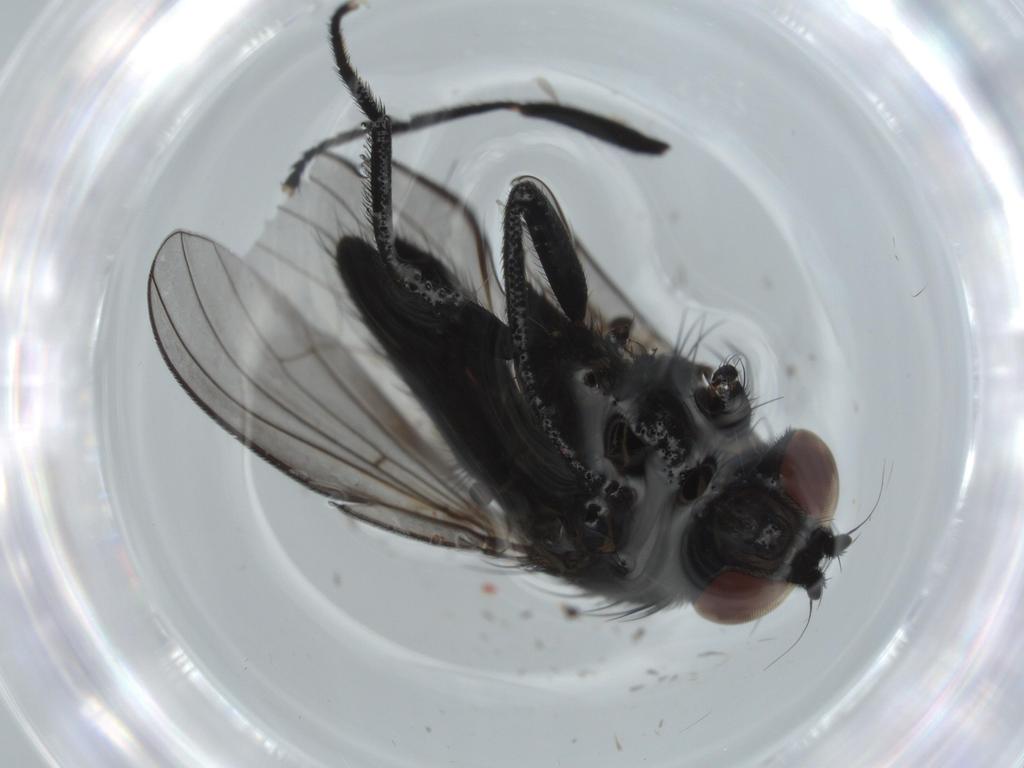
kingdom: Animalia
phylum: Arthropoda
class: Insecta
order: Diptera
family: Cecidomyiidae
